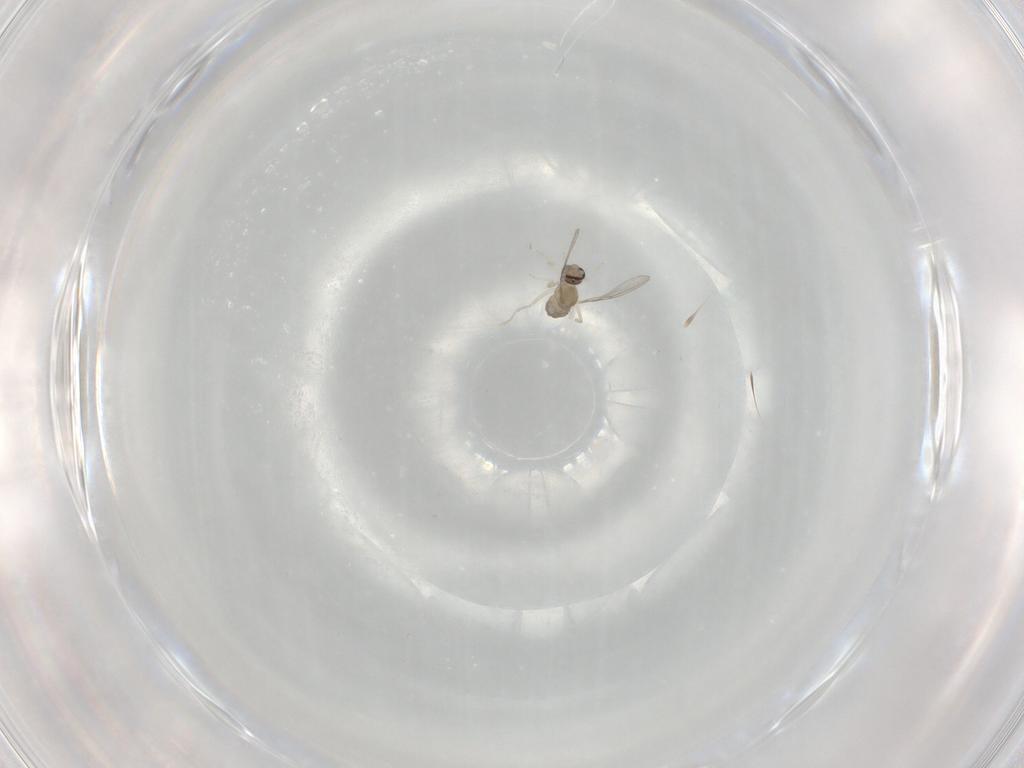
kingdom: Animalia
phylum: Arthropoda
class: Insecta
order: Diptera
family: Cecidomyiidae
